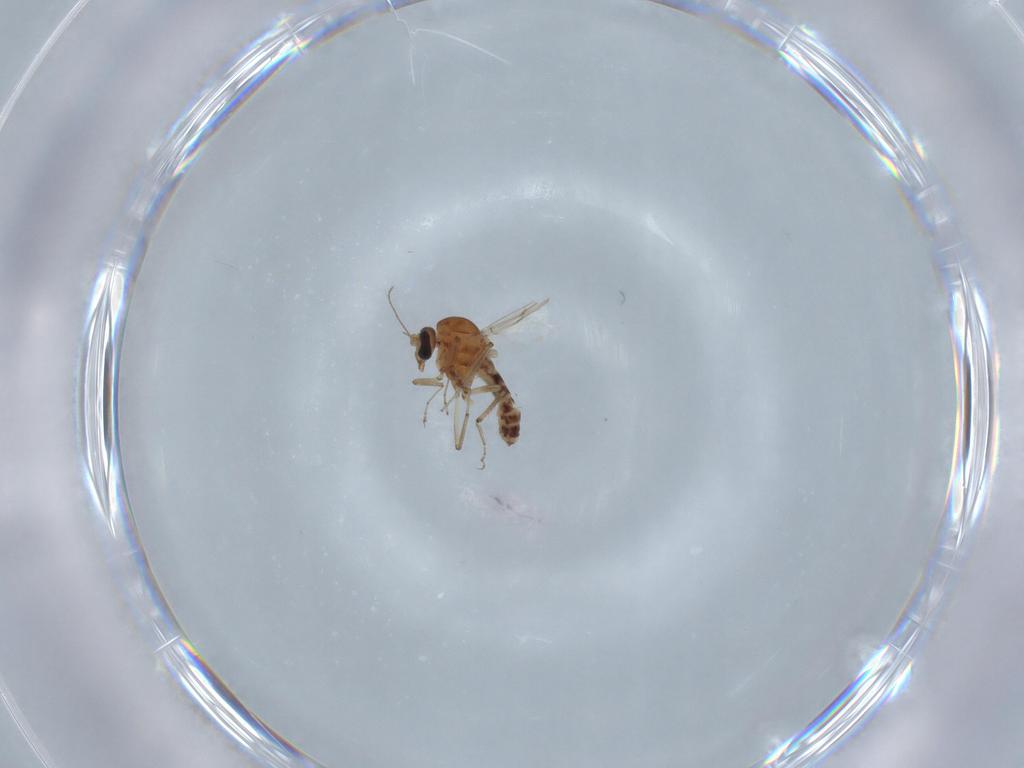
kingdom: Animalia
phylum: Arthropoda
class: Insecta
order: Diptera
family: Ceratopogonidae
